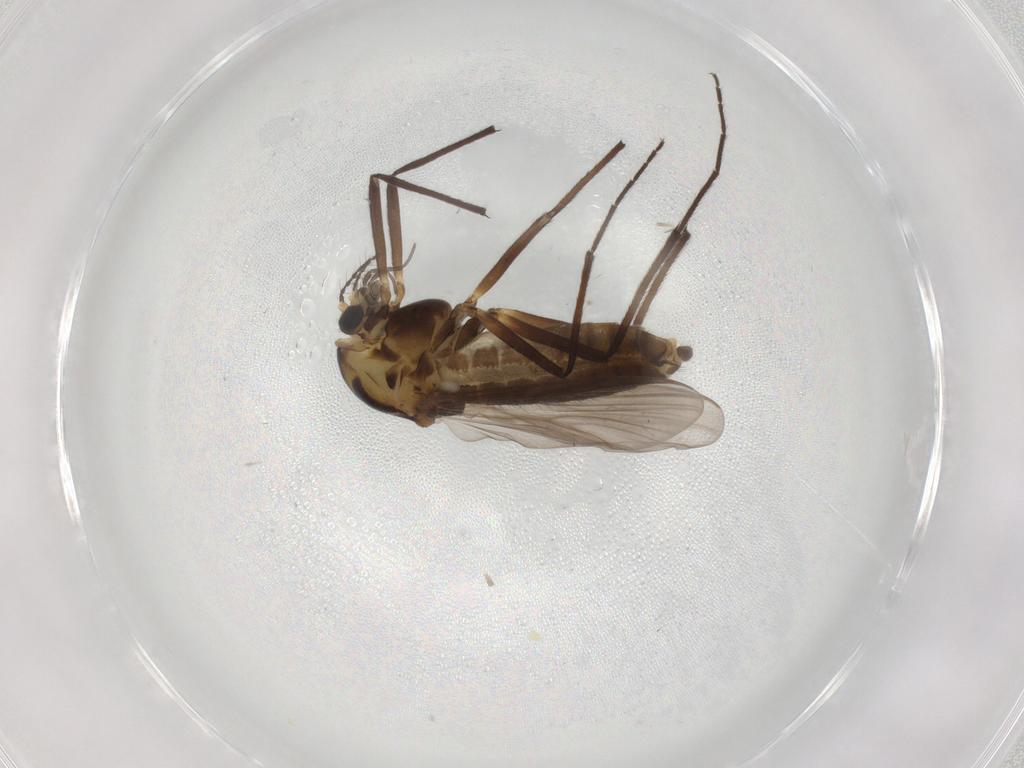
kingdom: Animalia
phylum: Arthropoda
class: Insecta
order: Diptera
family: Chironomidae
